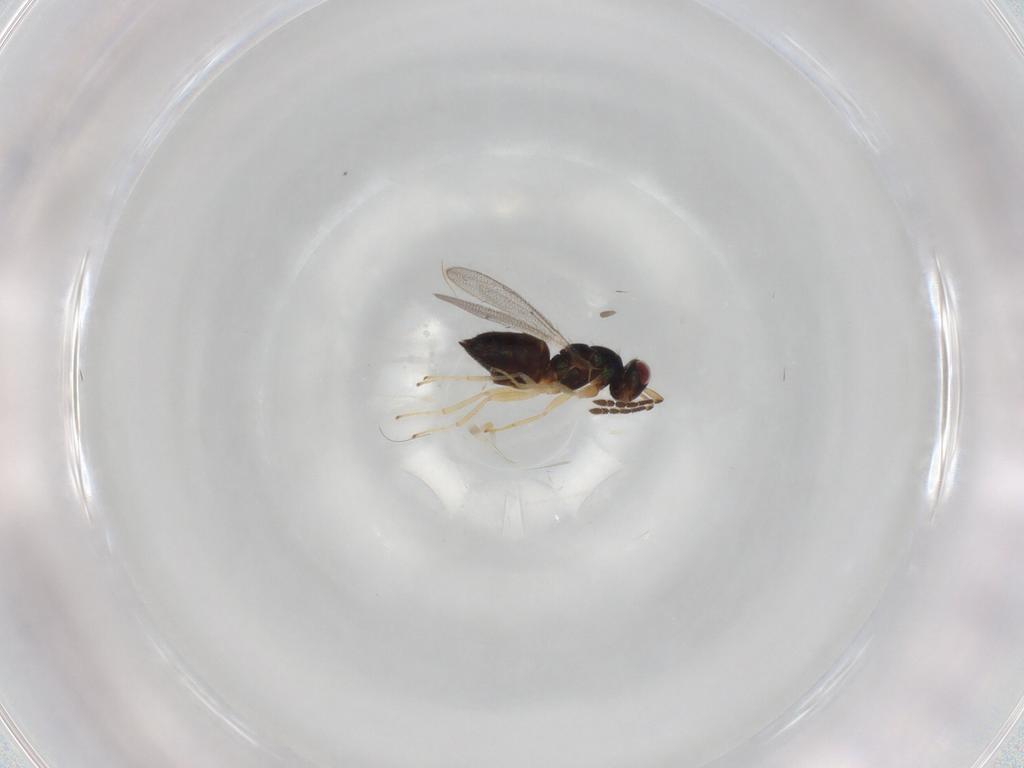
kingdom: Animalia
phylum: Arthropoda
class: Insecta
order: Hymenoptera
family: Eulophidae
